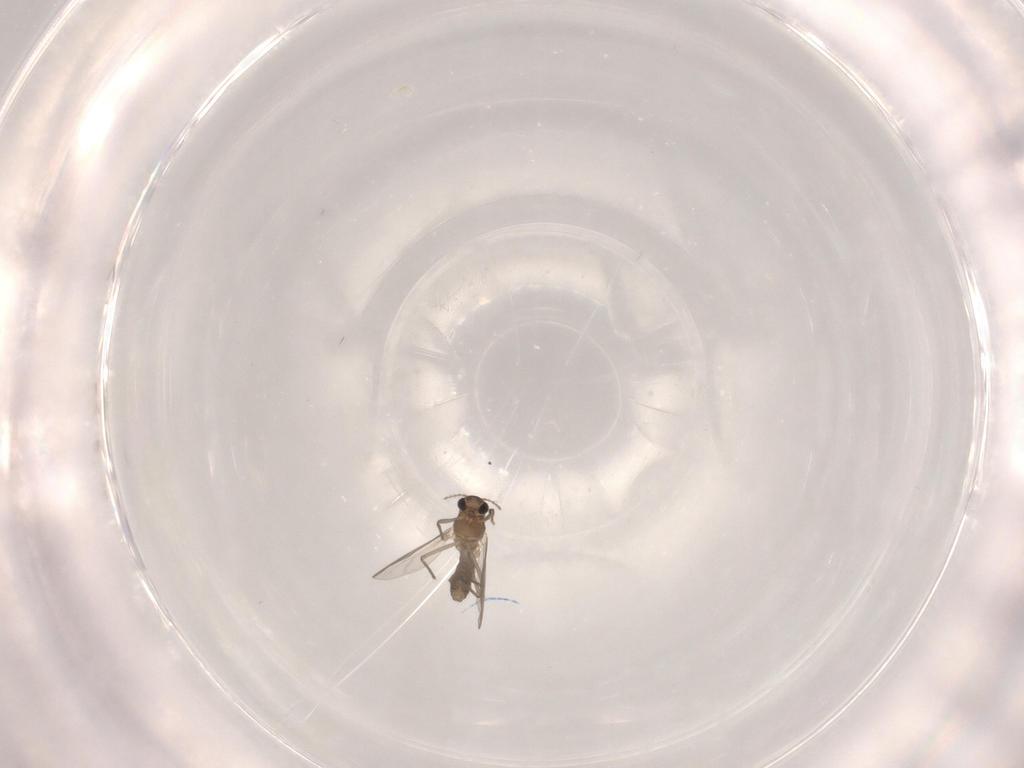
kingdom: Animalia
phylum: Arthropoda
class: Insecta
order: Diptera
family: Chironomidae
